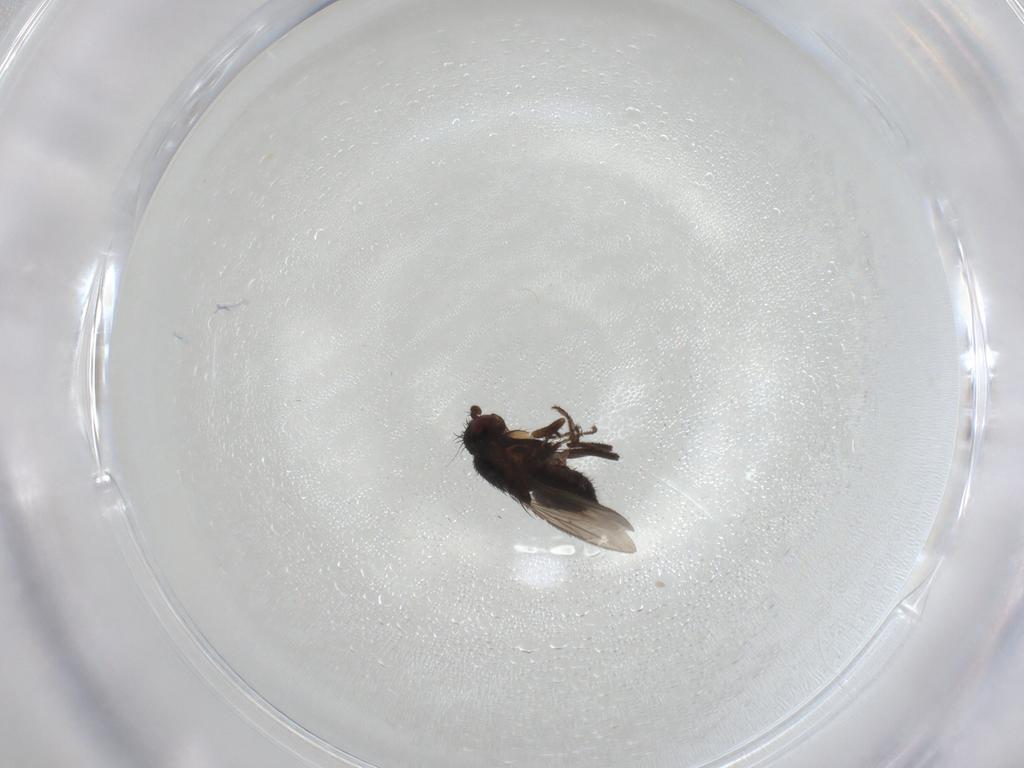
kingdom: Animalia
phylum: Arthropoda
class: Insecta
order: Diptera
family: Sphaeroceridae
